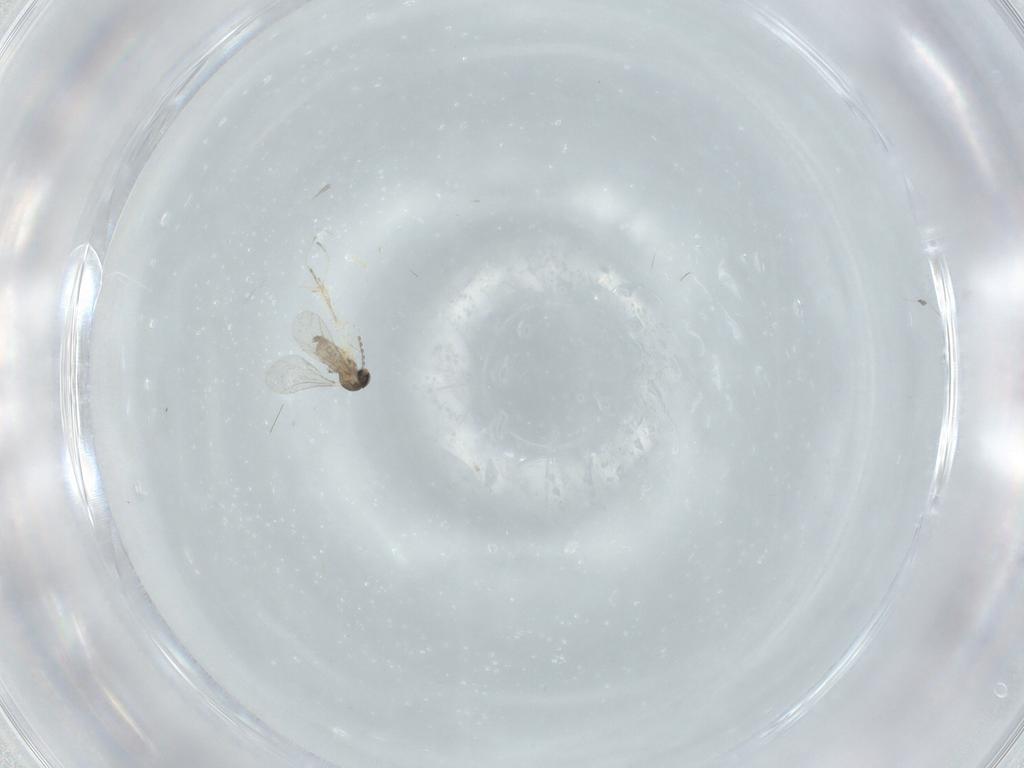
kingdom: Animalia
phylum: Arthropoda
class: Insecta
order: Diptera
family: Cecidomyiidae
